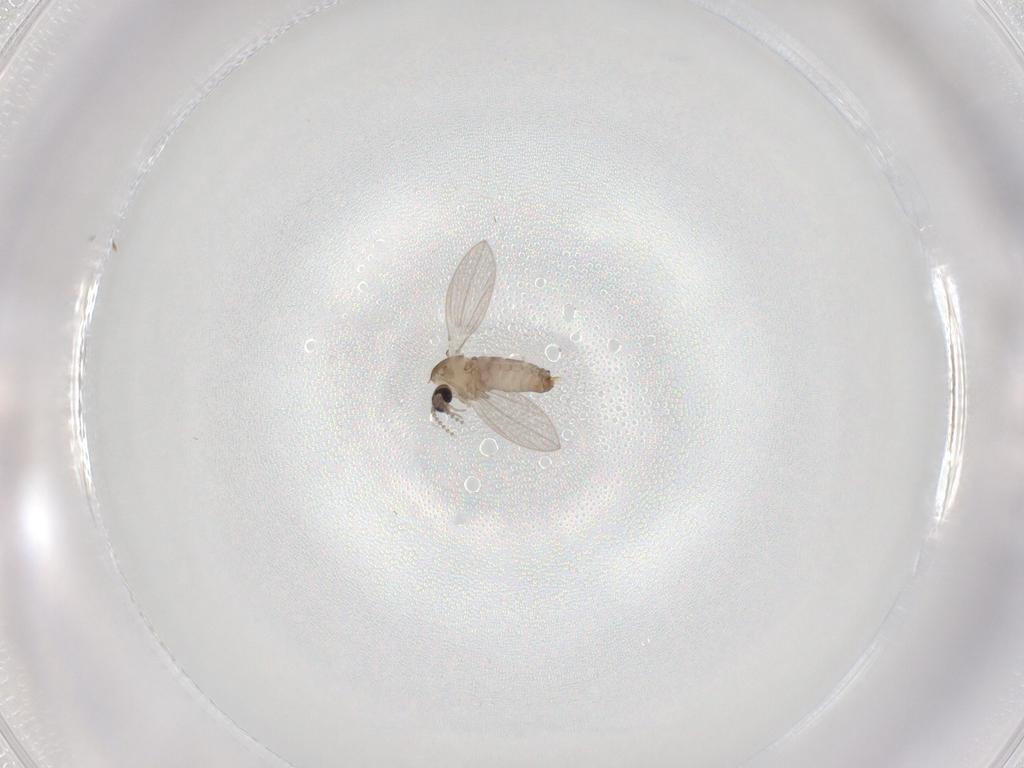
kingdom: Animalia
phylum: Arthropoda
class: Insecta
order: Diptera
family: Psychodidae
